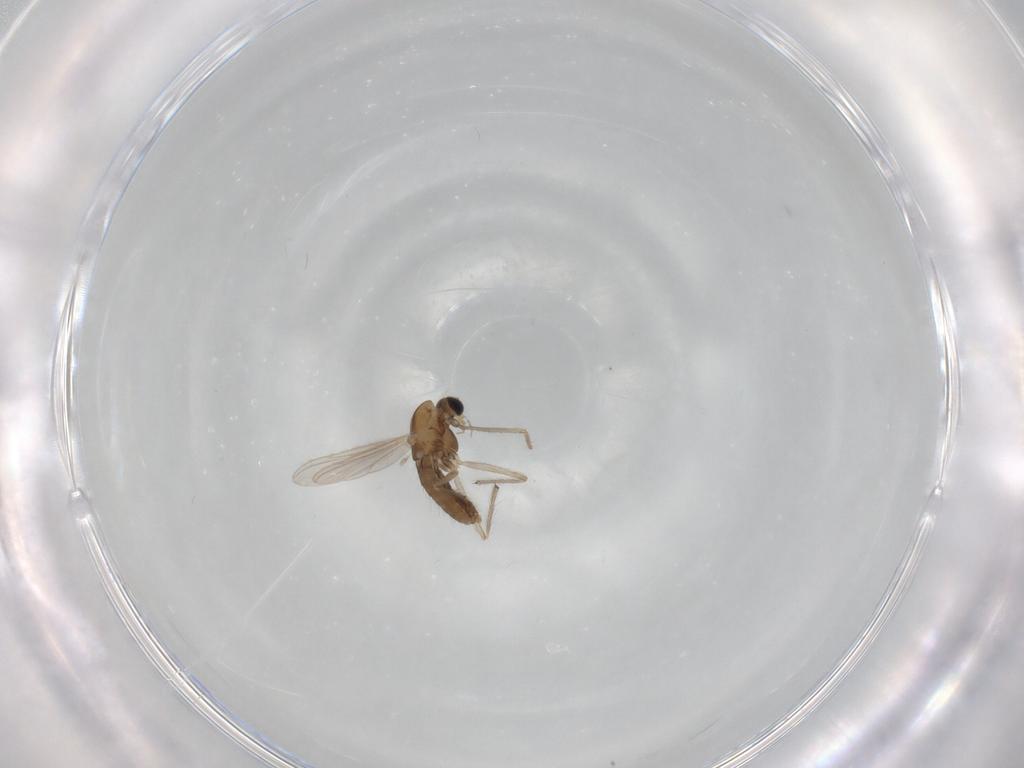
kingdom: Animalia
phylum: Arthropoda
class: Insecta
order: Diptera
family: Chironomidae
